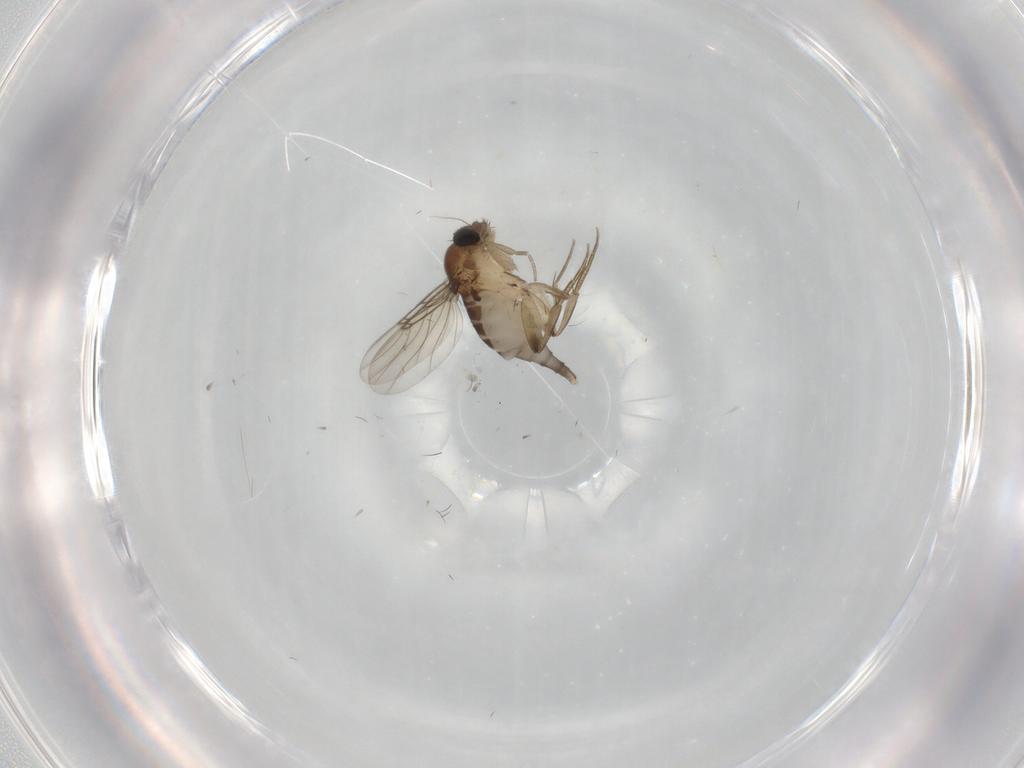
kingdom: Animalia
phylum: Arthropoda
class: Insecta
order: Diptera
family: Phoridae
